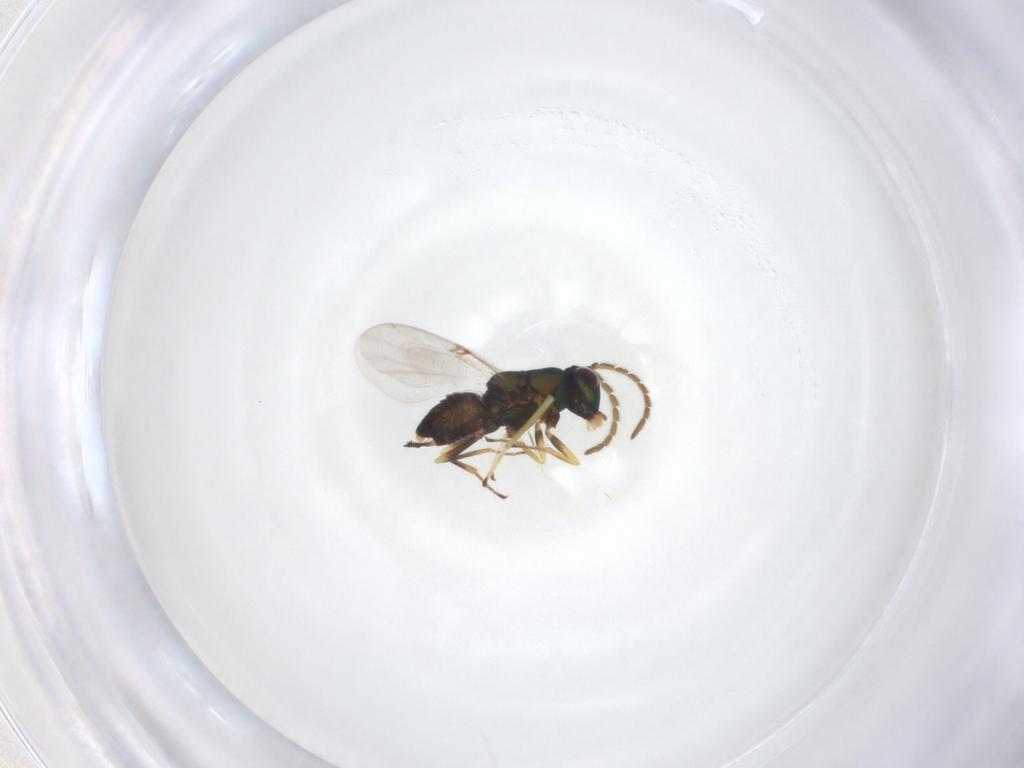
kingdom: Animalia
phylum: Arthropoda
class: Insecta
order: Hymenoptera
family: Encyrtidae
